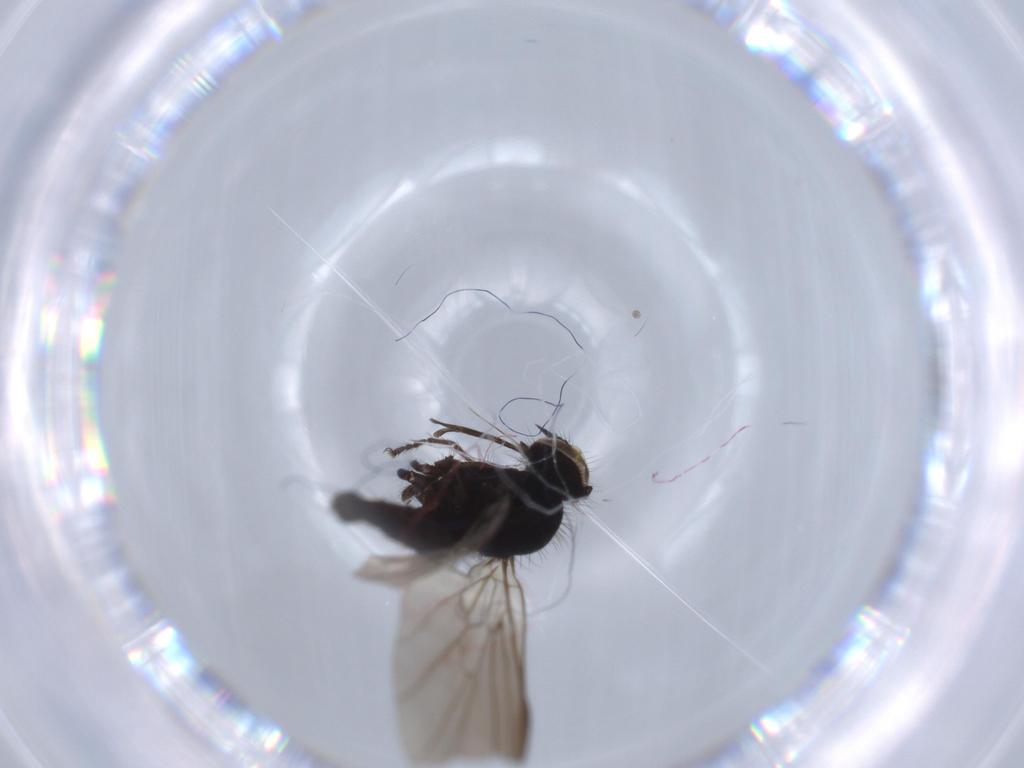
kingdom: Animalia
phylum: Arthropoda
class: Insecta
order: Diptera
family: Empididae
